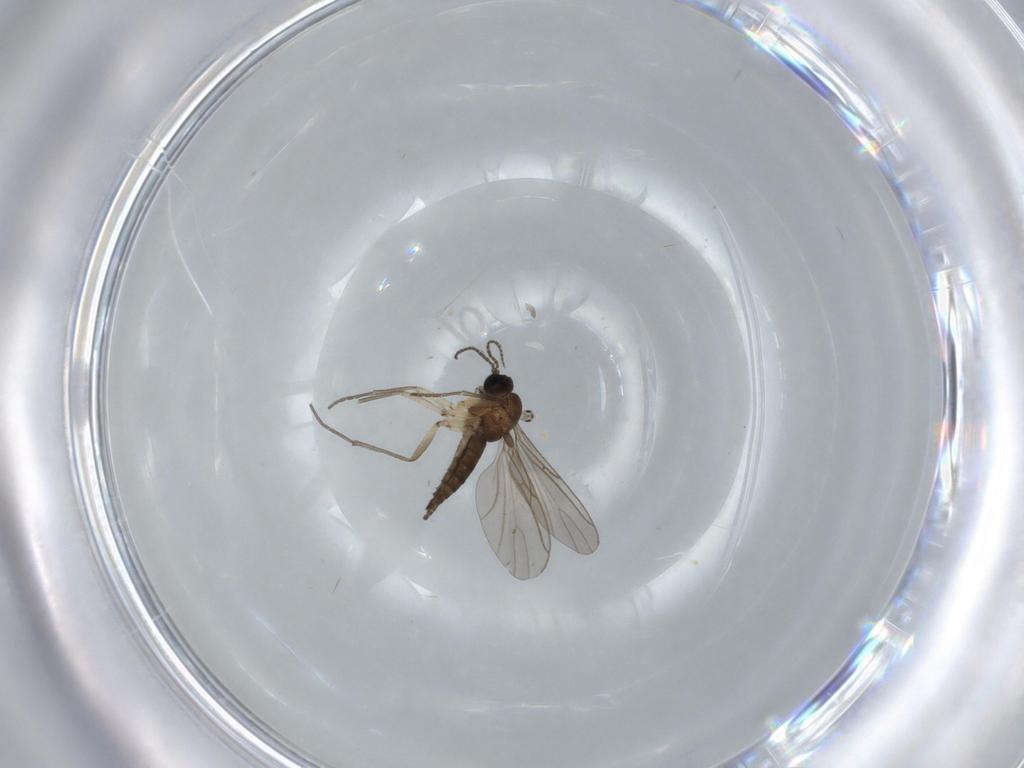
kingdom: Animalia
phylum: Arthropoda
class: Insecta
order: Diptera
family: Sciaridae
